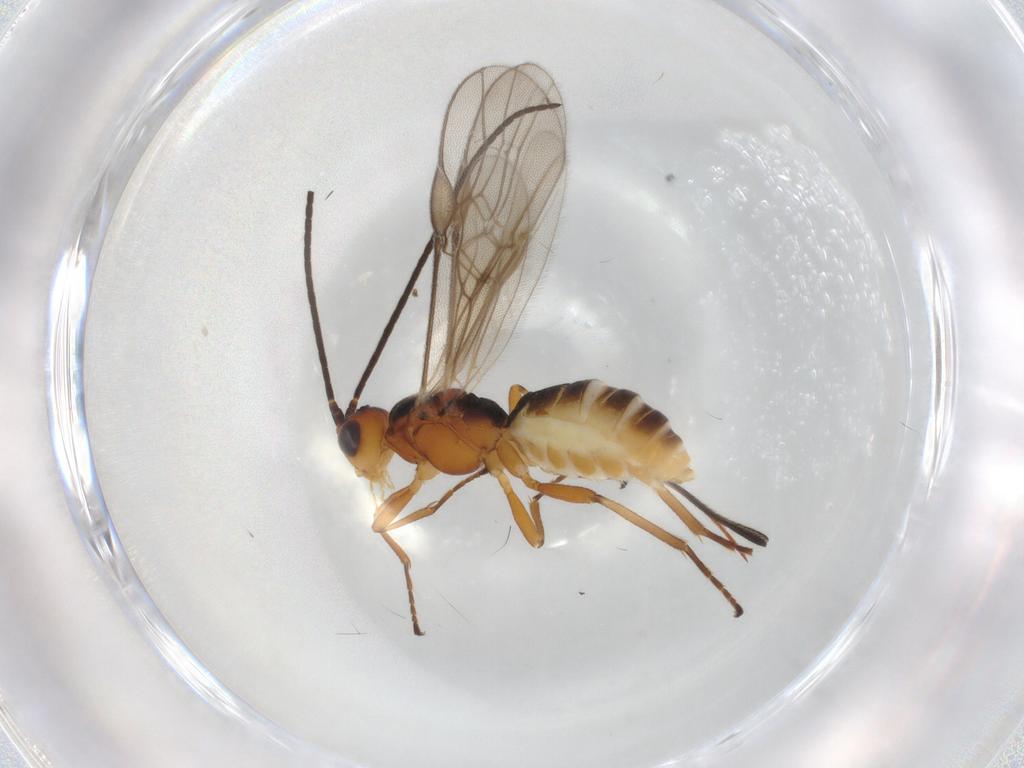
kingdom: Animalia
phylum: Arthropoda
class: Insecta
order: Hymenoptera
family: Braconidae
